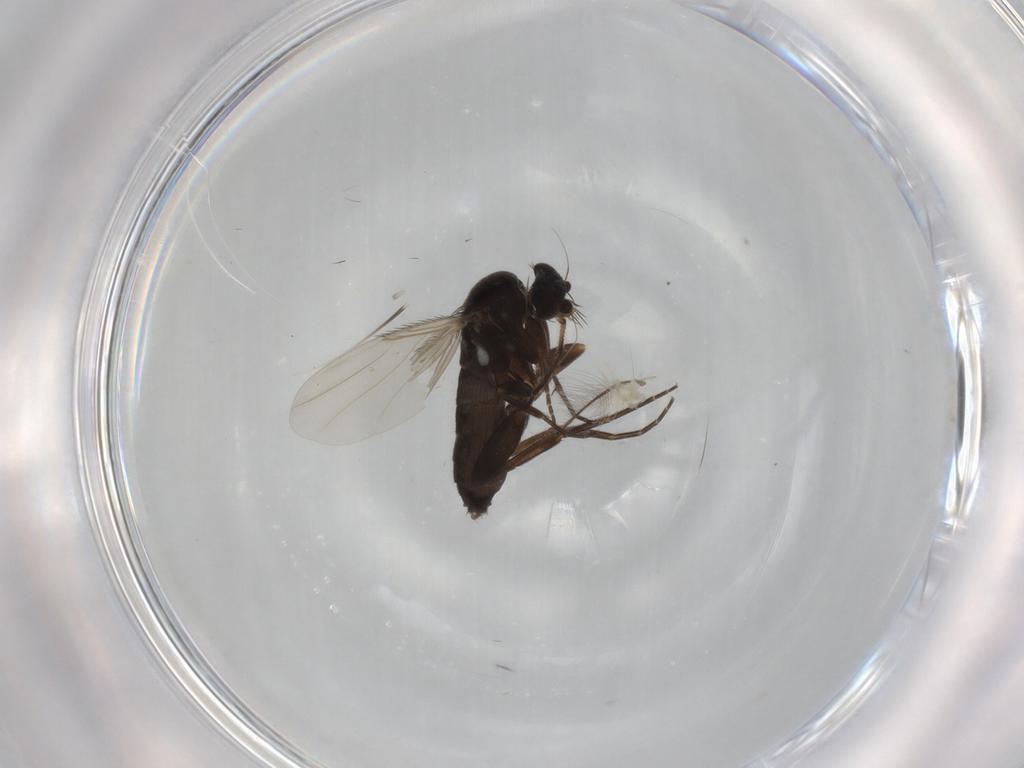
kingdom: Animalia
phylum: Arthropoda
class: Insecta
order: Diptera
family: Phoridae
